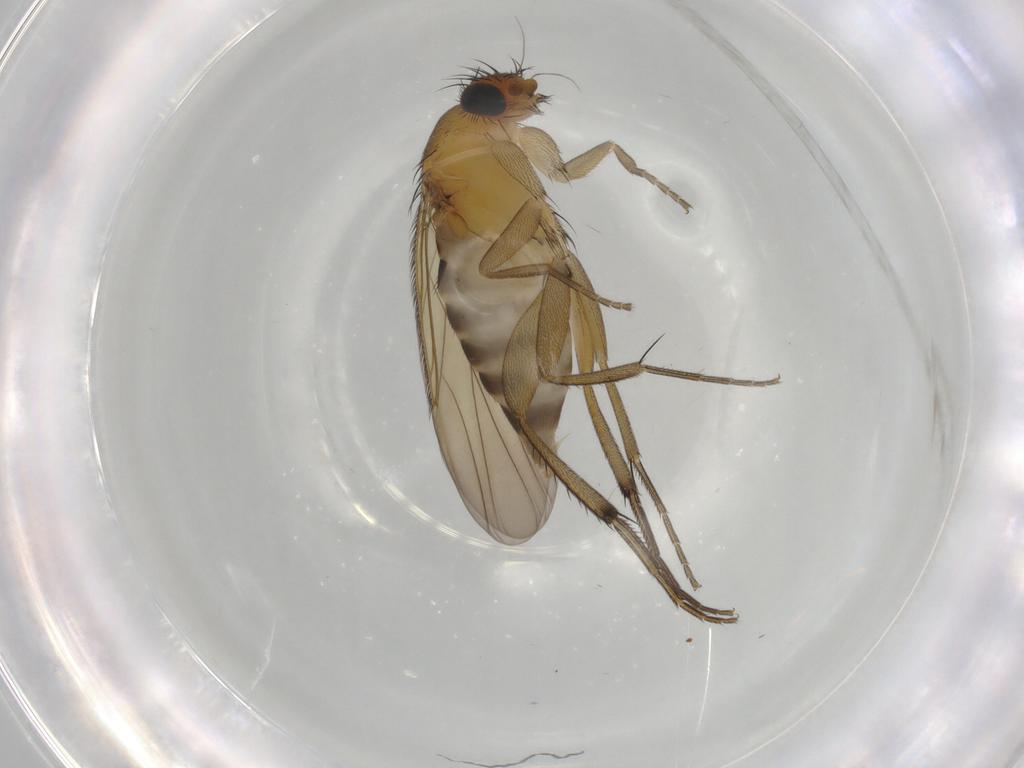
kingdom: Animalia
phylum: Arthropoda
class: Insecta
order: Diptera
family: Phoridae
